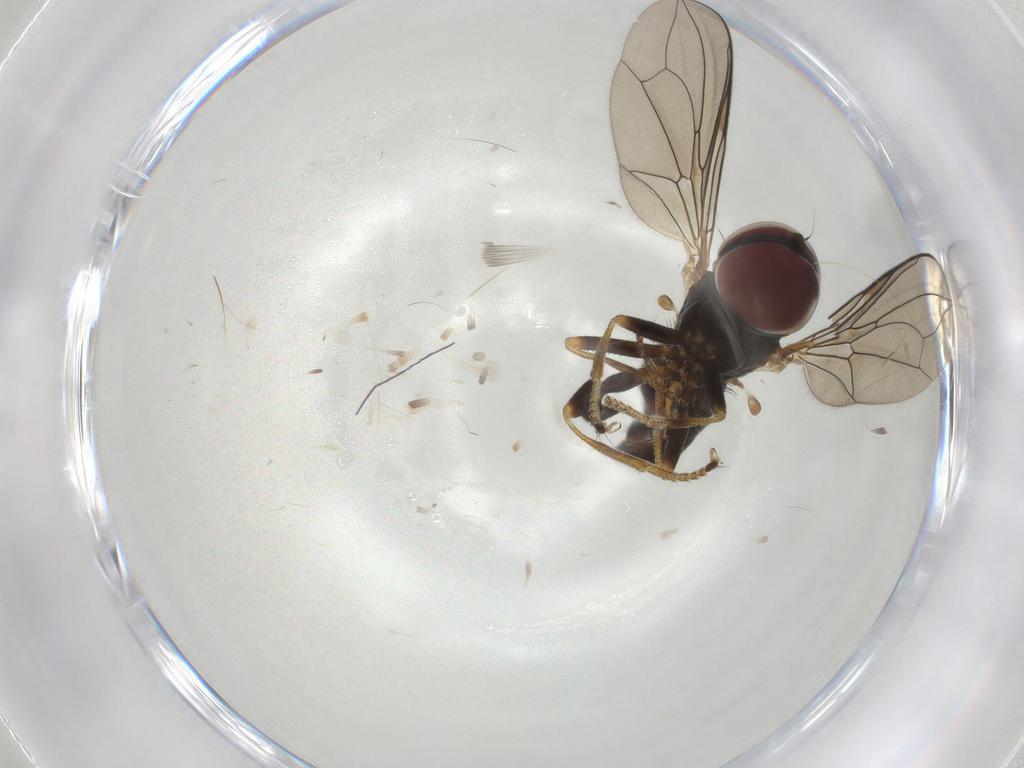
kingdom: Animalia
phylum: Arthropoda
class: Insecta
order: Diptera
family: Pipunculidae
